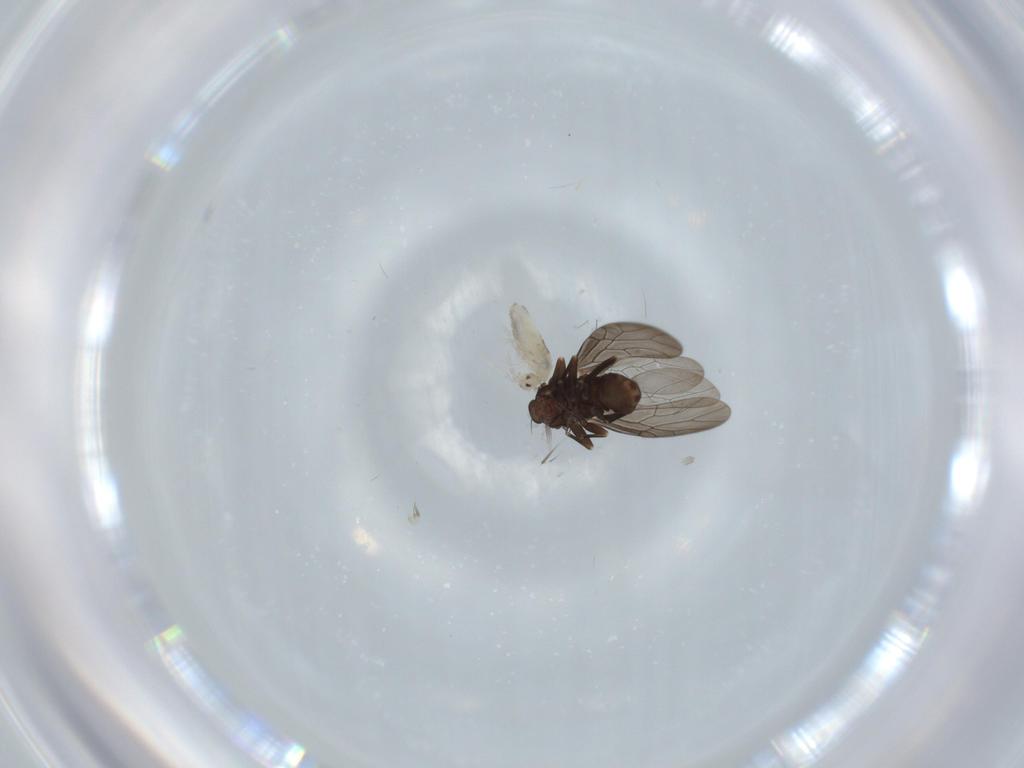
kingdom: Animalia
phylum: Arthropoda
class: Collembola
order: Entomobryomorpha
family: Entomobryidae
